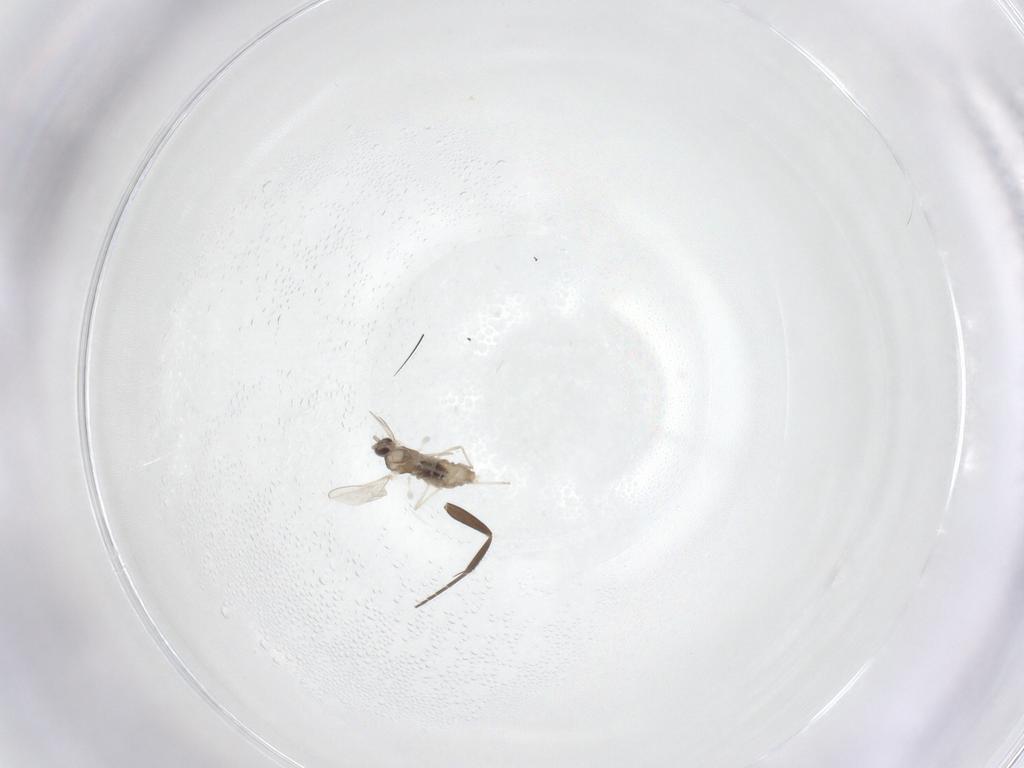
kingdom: Animalia
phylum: Arthropoda
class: Insecta
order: Diptera
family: Cecidomyiidae
